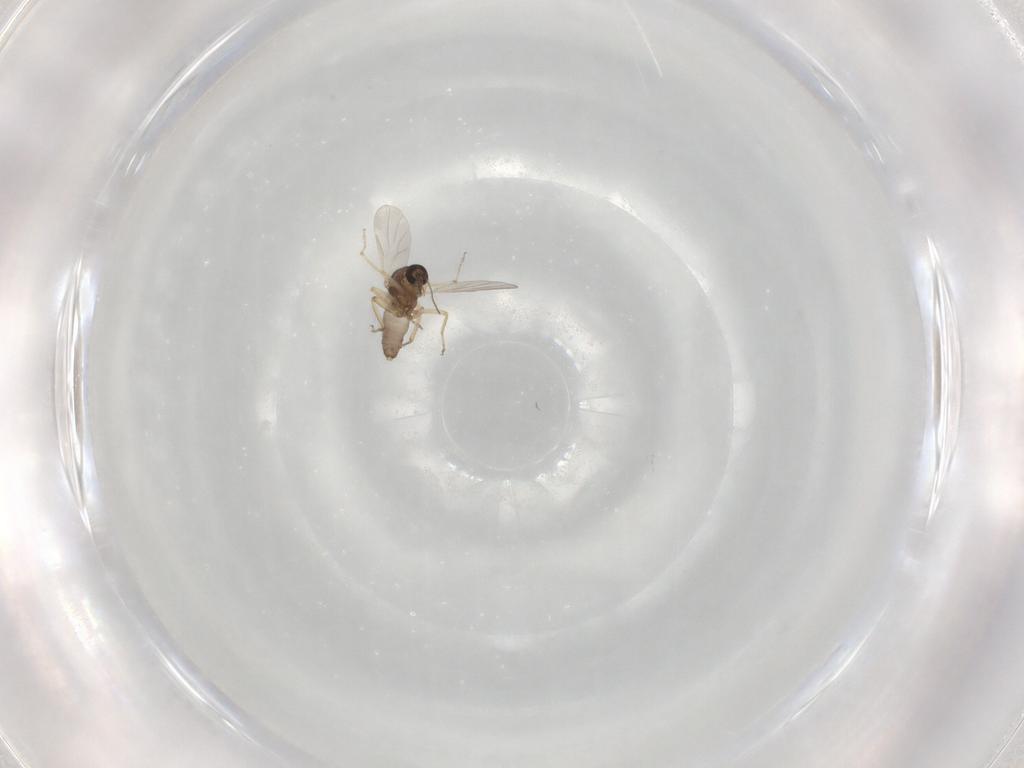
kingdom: Animalia
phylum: Arthropoda
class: Insecta
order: Diptera
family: Ceratopogonidae
